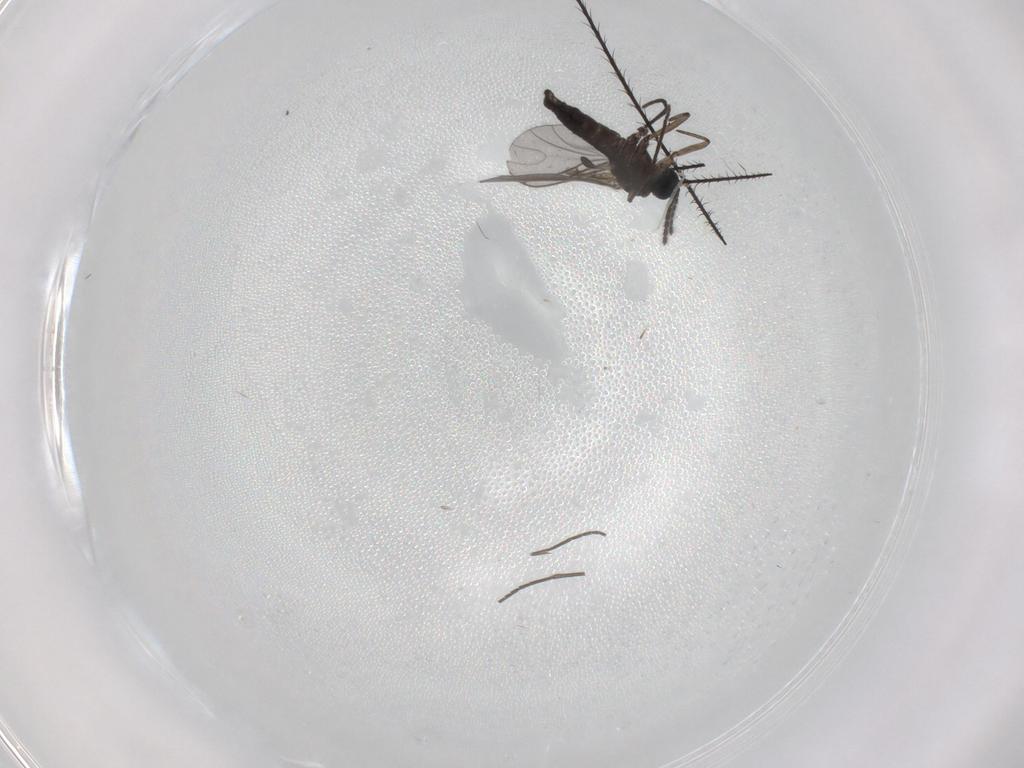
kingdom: Animalia
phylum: Arthropoda
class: Insecta
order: Diptera
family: Sciaridae
